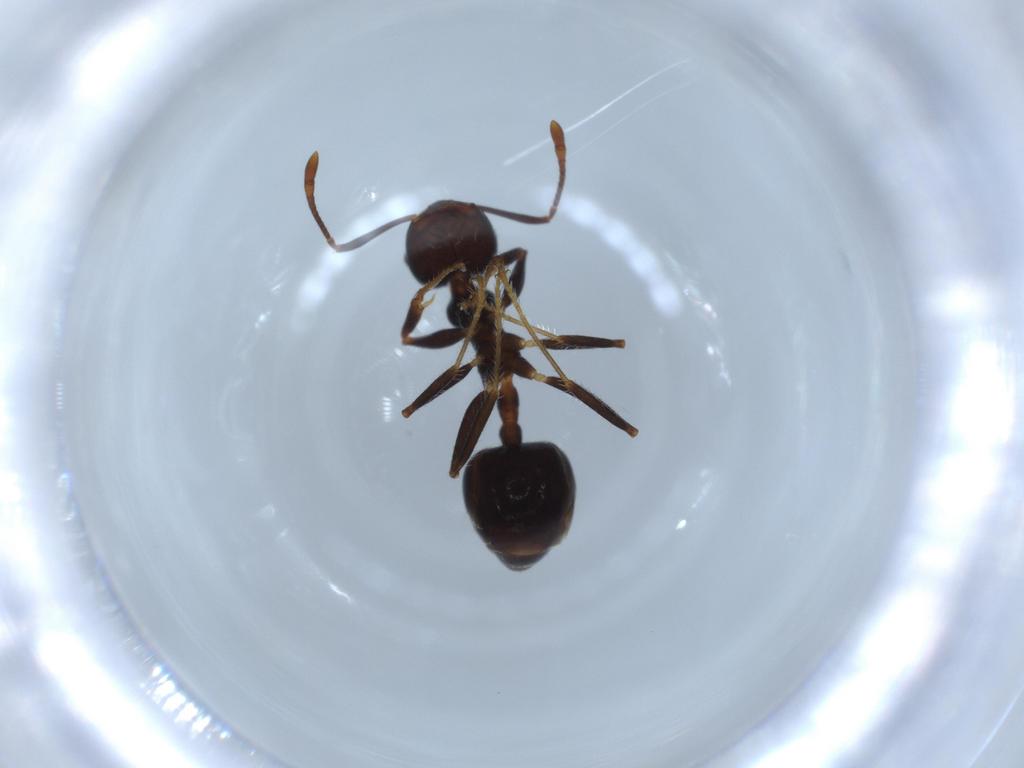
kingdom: Animalia
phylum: Arthropoda
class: Insecta
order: Hymenoptera
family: Formicidae
